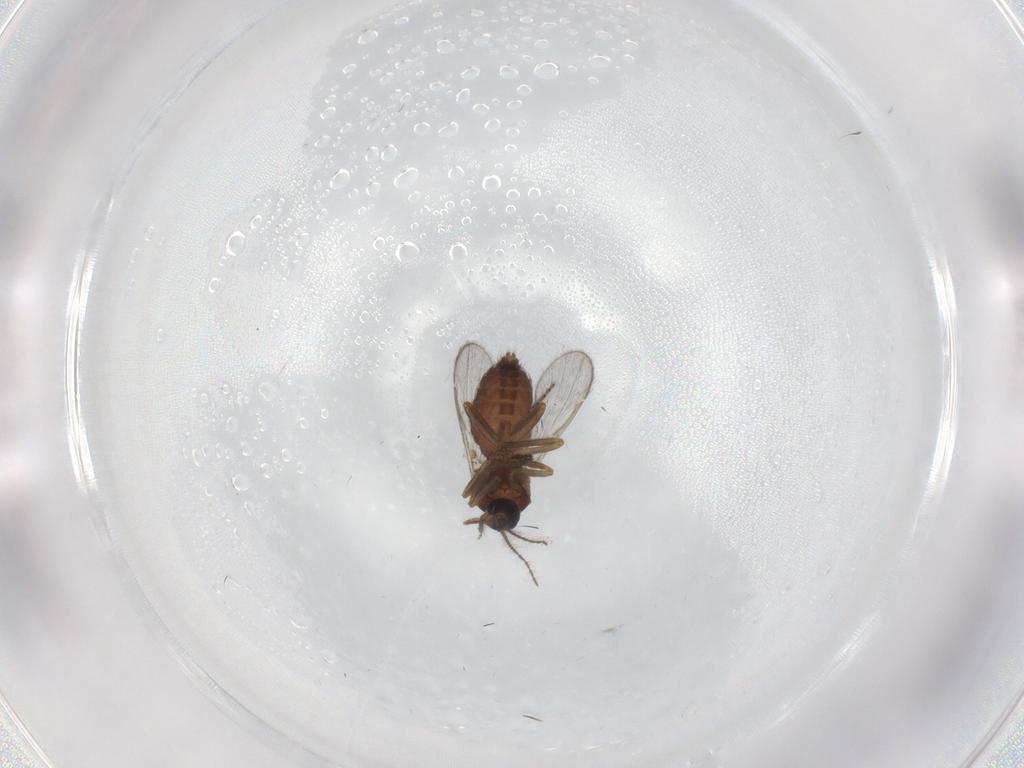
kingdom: Animalia
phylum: Arthropoda
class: Insecta
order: Diptera
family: Ceratopogonidae
